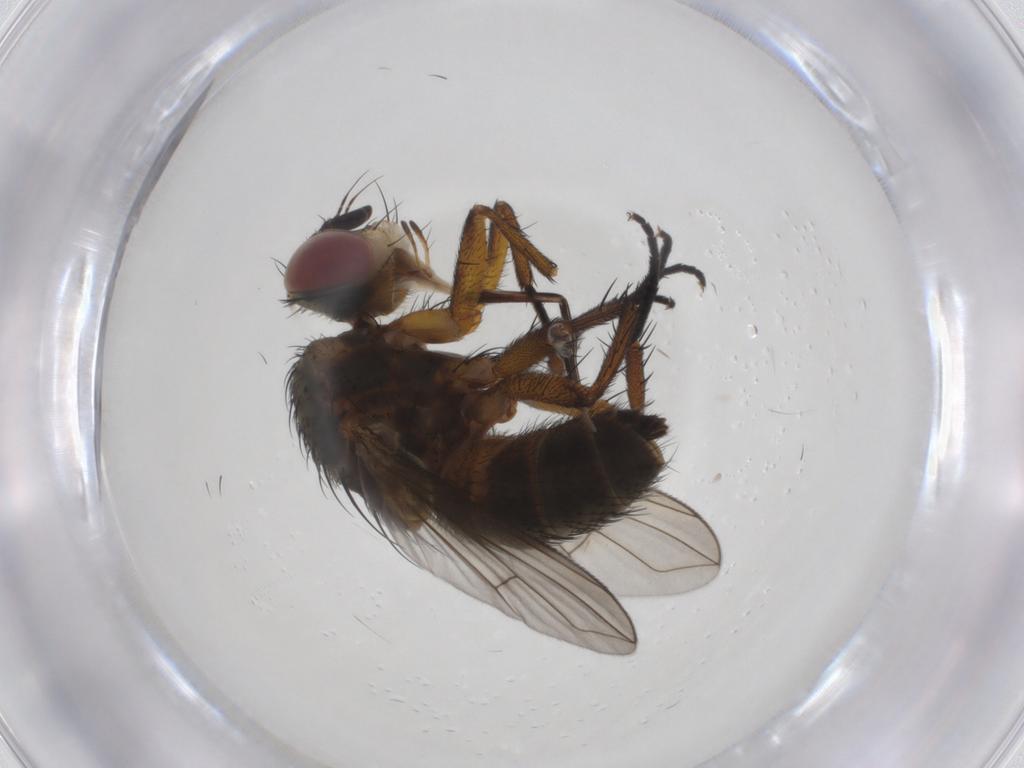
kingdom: Animalia
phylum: Arthropoda
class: Insecta
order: Diptera
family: Tachinidae
